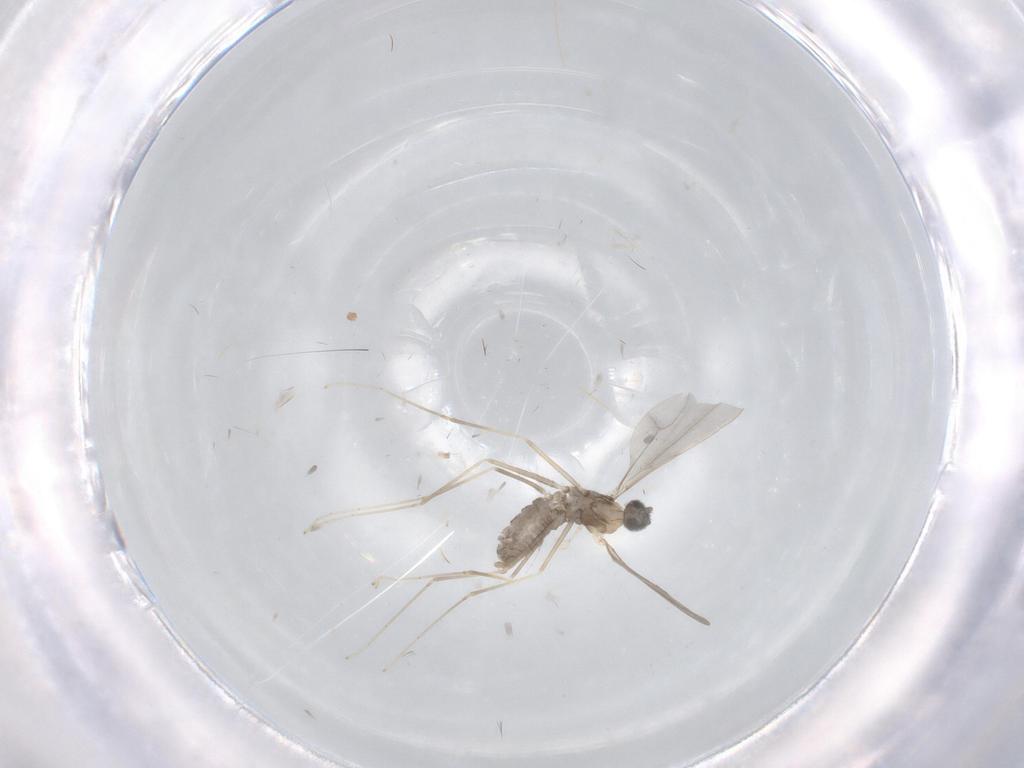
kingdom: Animalia
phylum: Arthropoda
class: Insecta
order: Diptera
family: Cecidomyiidae
